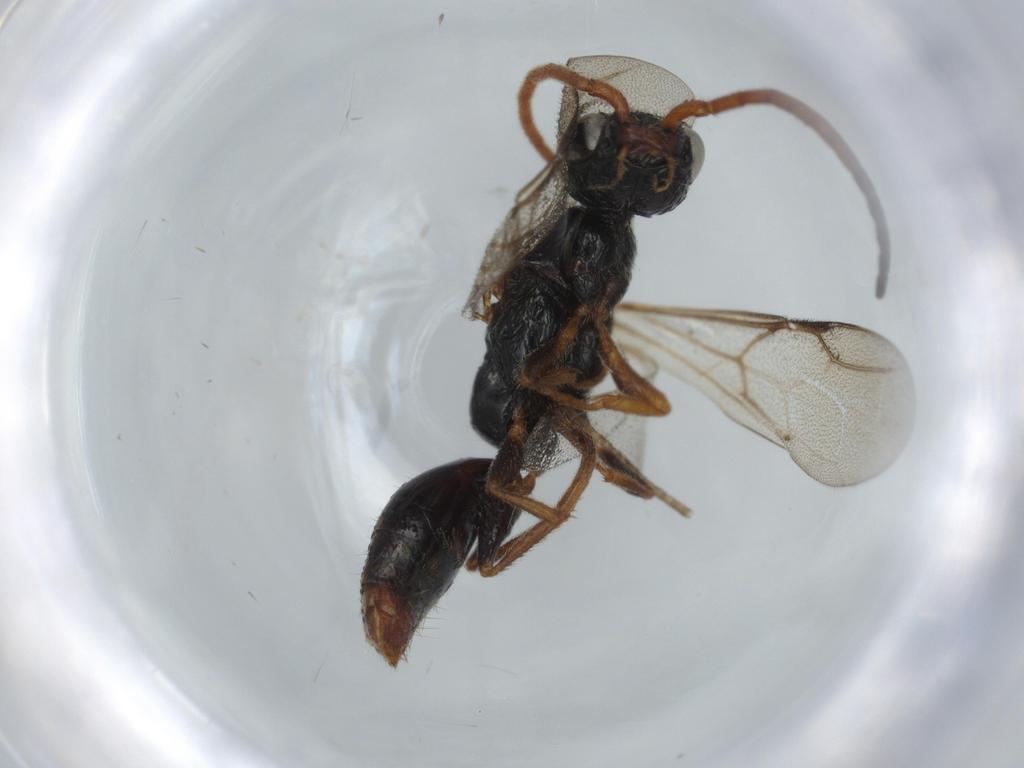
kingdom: Animalia
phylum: Arthropoda
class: Insecta
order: Hymenoptera
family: Bethylidae
